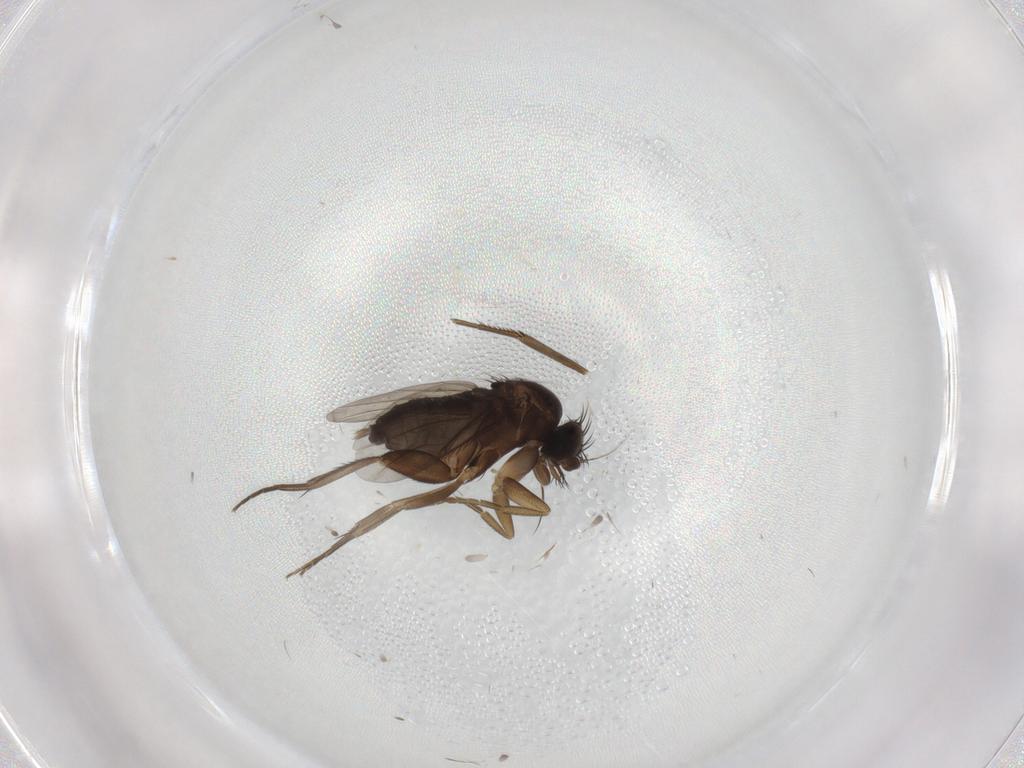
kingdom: Animalia
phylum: Arthropoda
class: Insecta
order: Diptera
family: Phoridae
